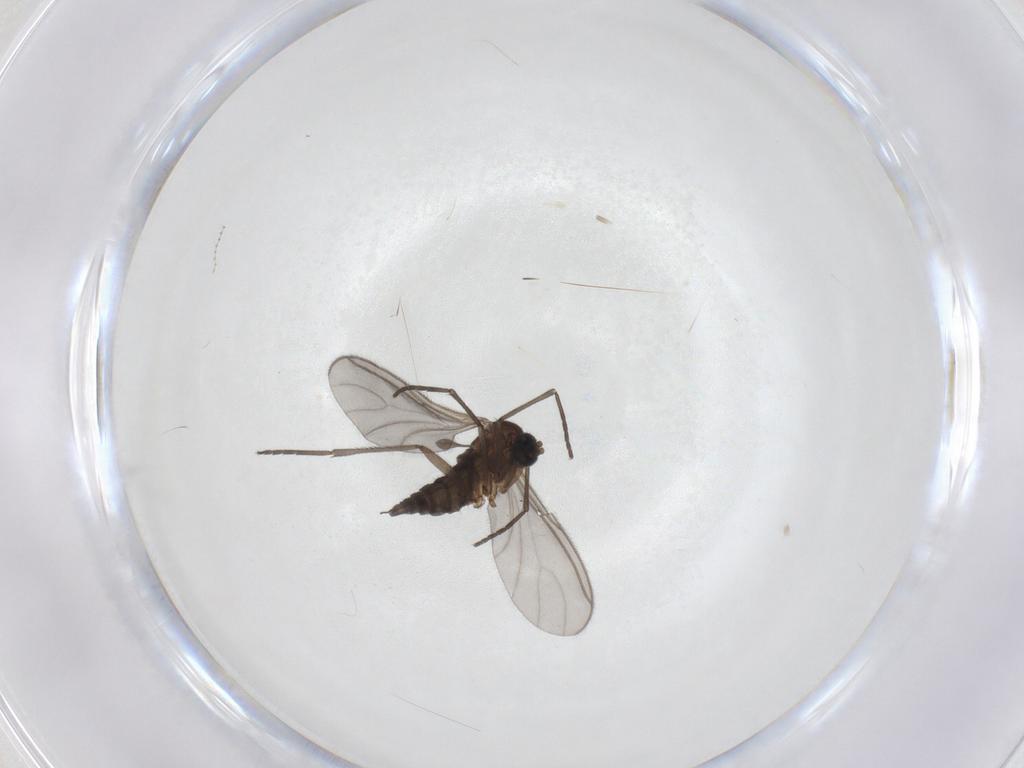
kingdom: Animalia
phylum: Arthropoda
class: Insecta
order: Diptera
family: Sciaridae
